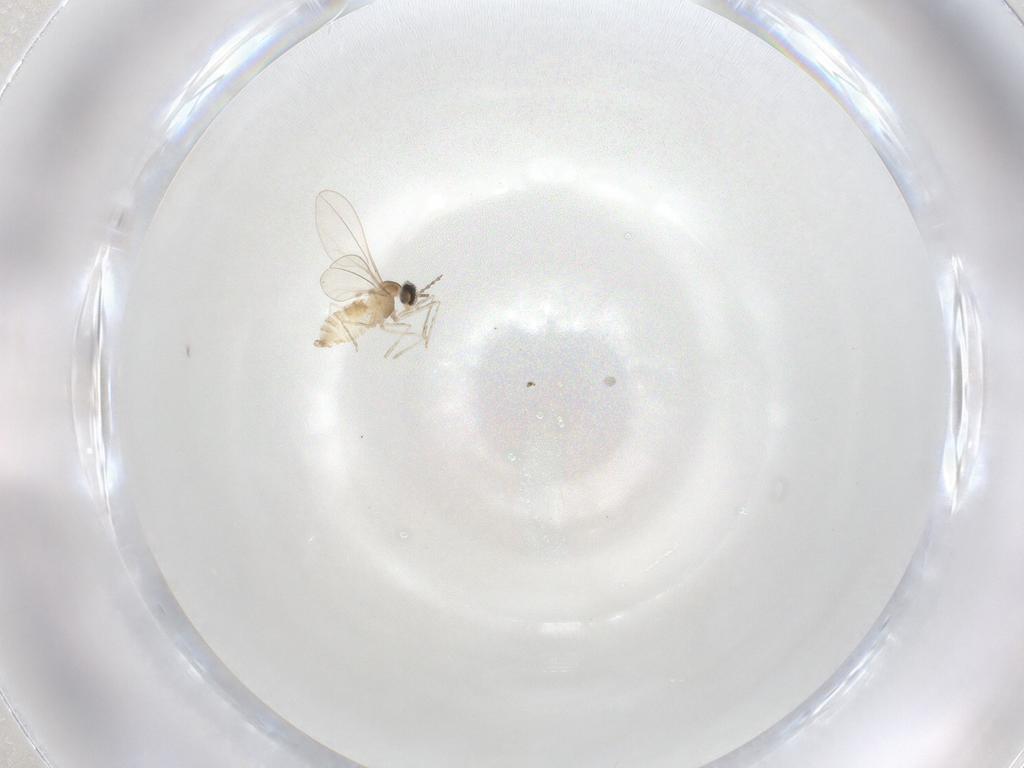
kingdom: Animalia
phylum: Arthropoda
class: Insecta
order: Diptera
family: Cecidomyiidae
